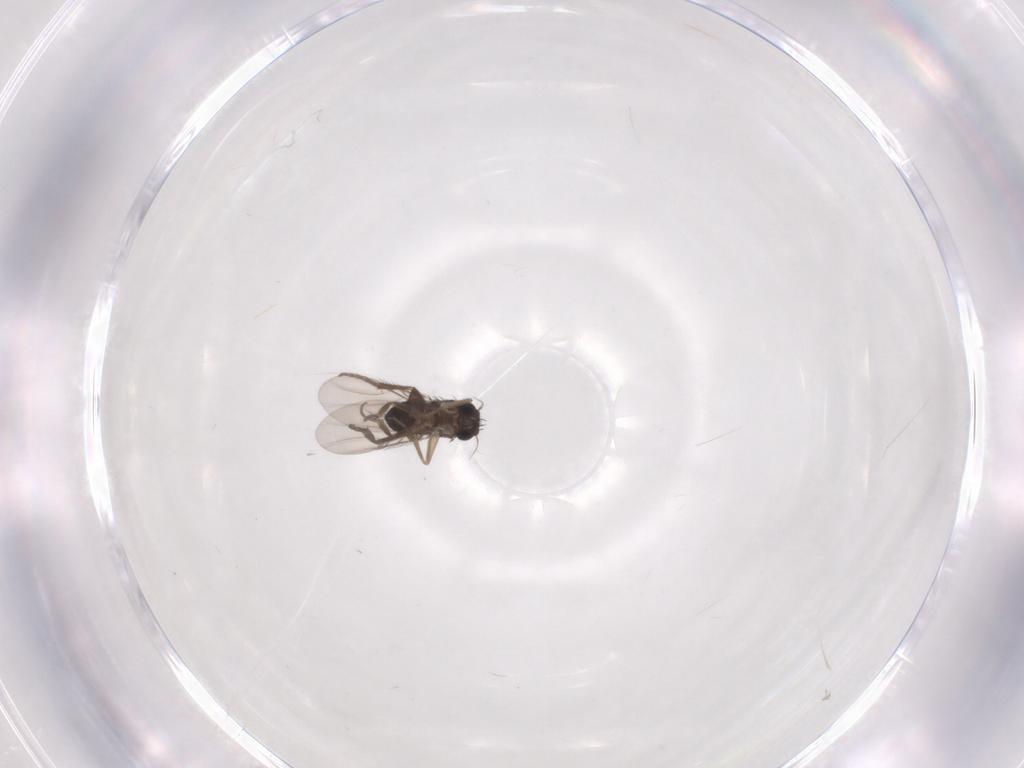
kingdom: Animalia
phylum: Arthropoda
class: Insecta
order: Diptera
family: Phoridae
